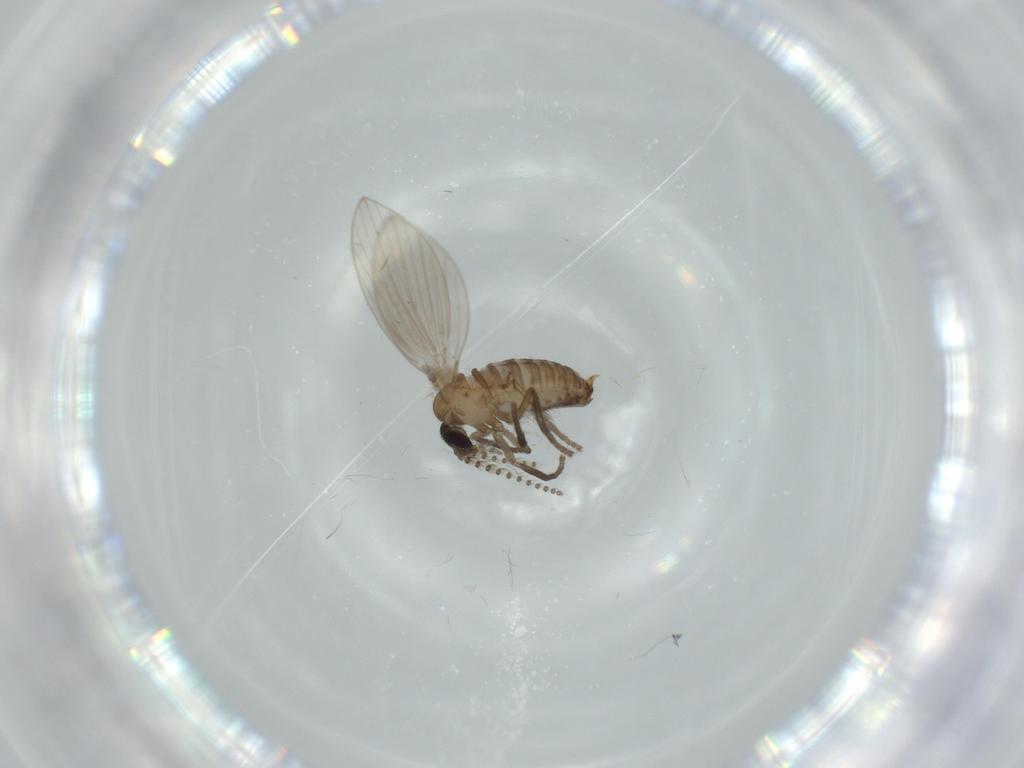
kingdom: Animalia
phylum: Arthropoda
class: Insecta
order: Diptera
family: Psychodidae
